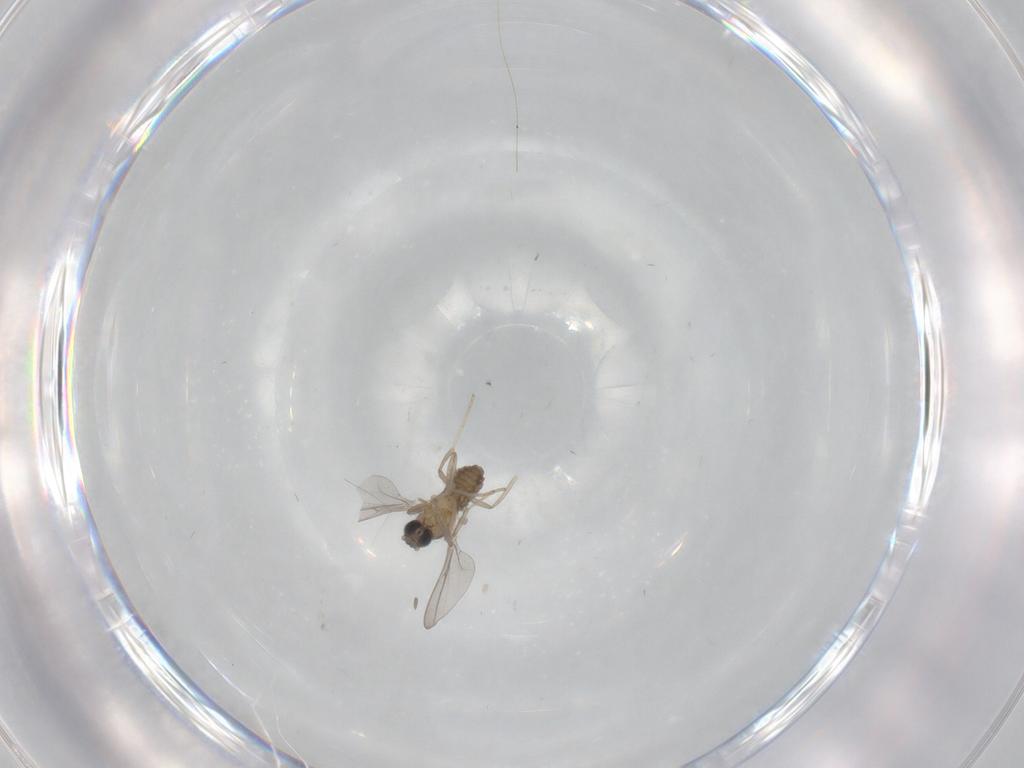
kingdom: Animalia
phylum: Arthropoda
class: Insecta
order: Diptera
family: Cecidomyiidae
